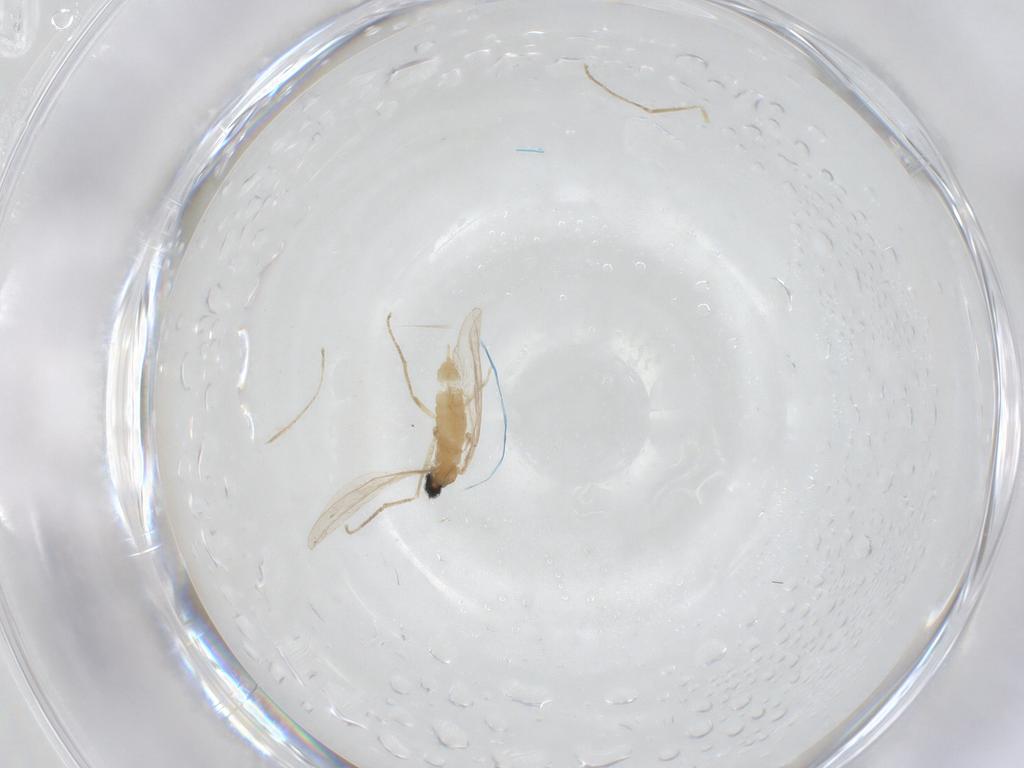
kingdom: Animalia
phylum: Arthropoda
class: Insecta
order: Diptera
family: Cecidomyiidae
